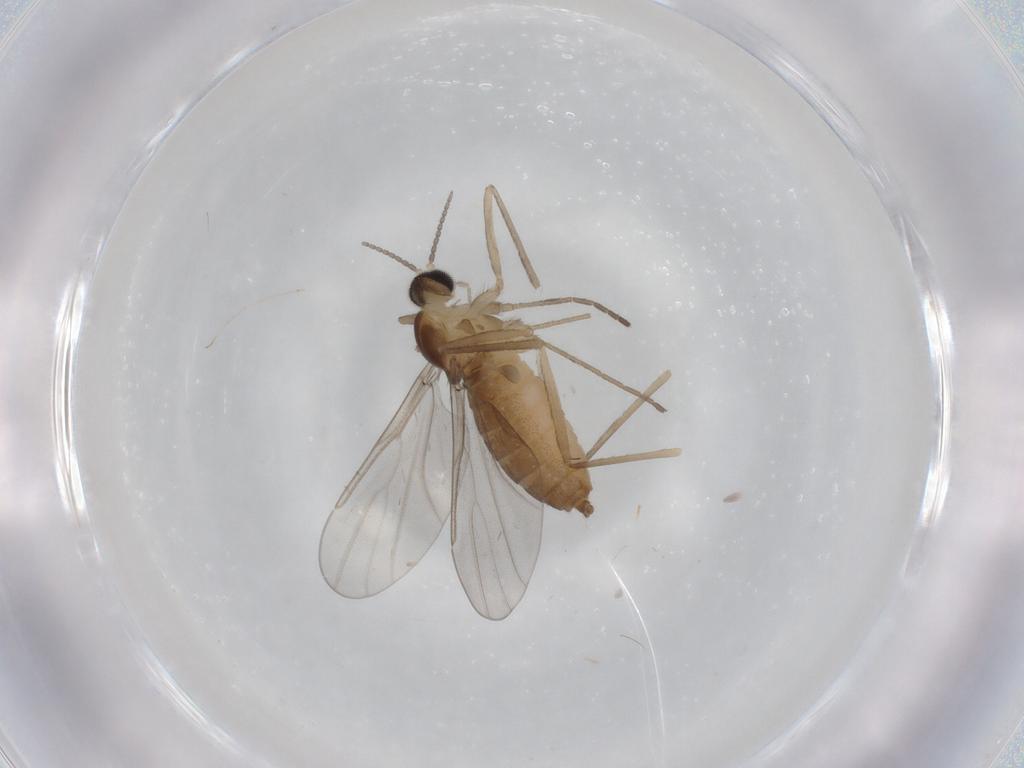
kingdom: Animalia
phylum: Arthropoda
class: Insecta
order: Diptera
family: Cecidomyiidae
